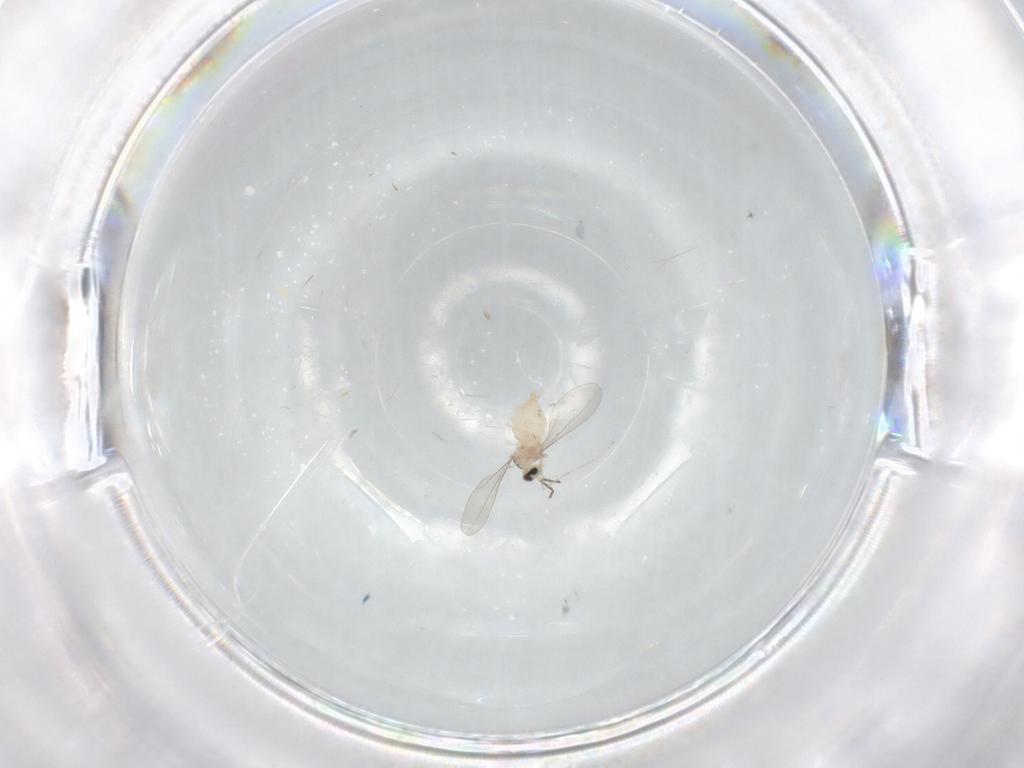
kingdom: Animalia
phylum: Arthropoda
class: Insecta
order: Diptera
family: Cecidomyiidae
